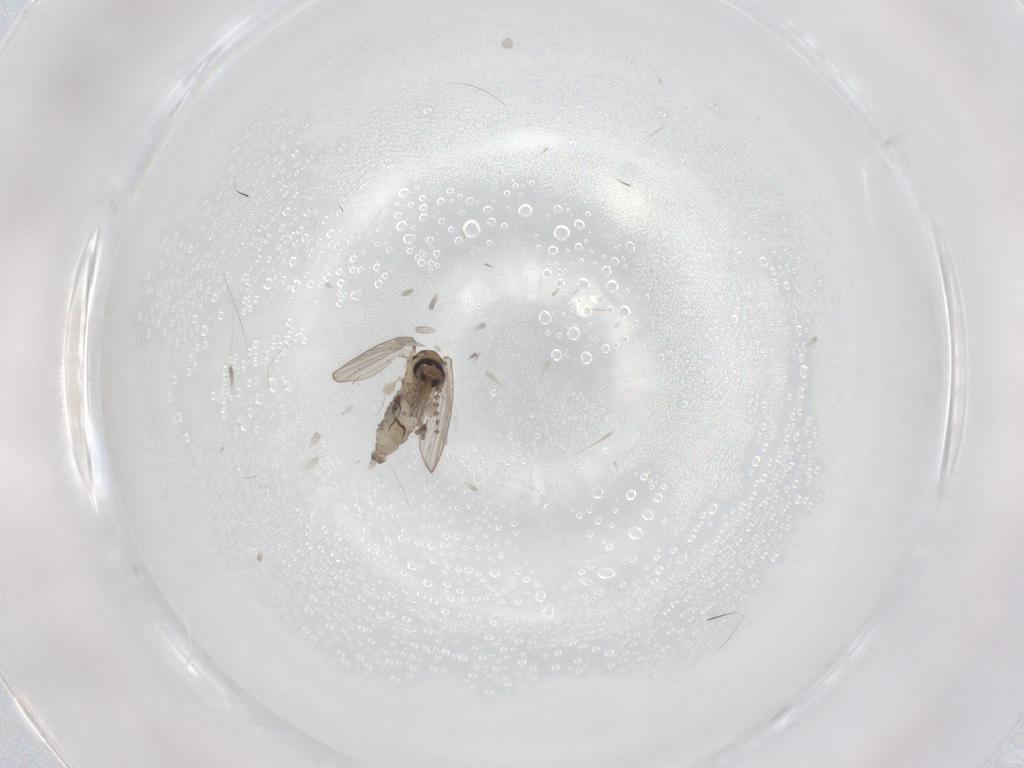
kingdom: Animalia
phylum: Arthropoda
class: Insecta
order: Diptera
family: Psychodidae
